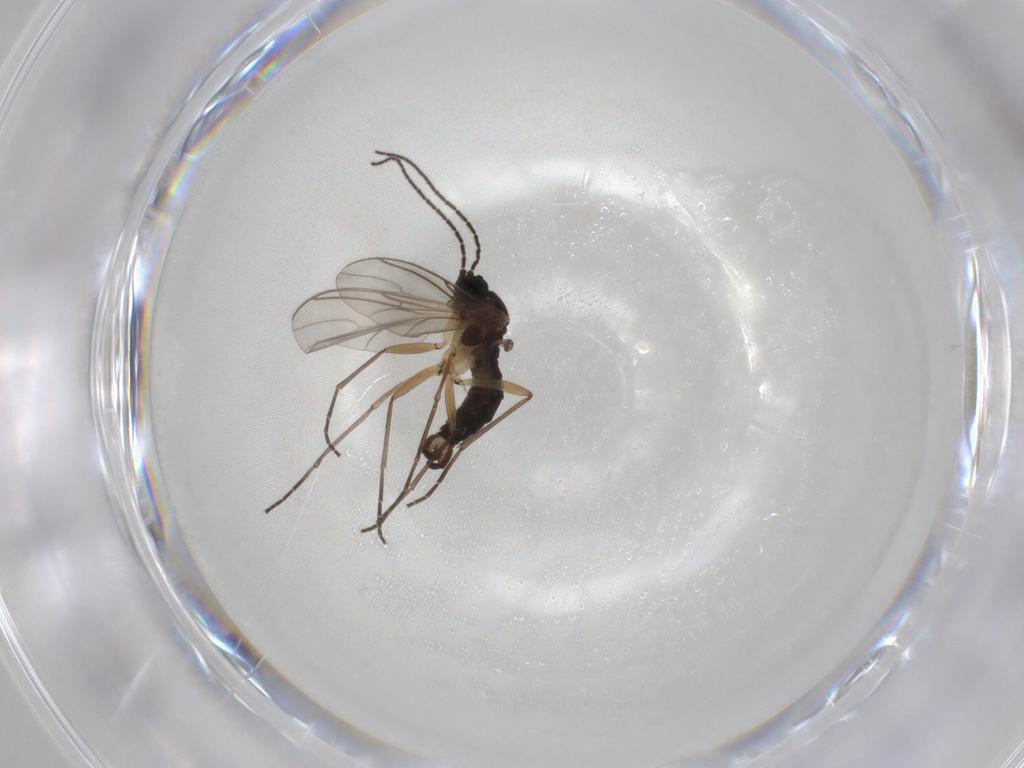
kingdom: Animalia
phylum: Arthropoda
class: Insecta
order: Diptera
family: Sciaridae
